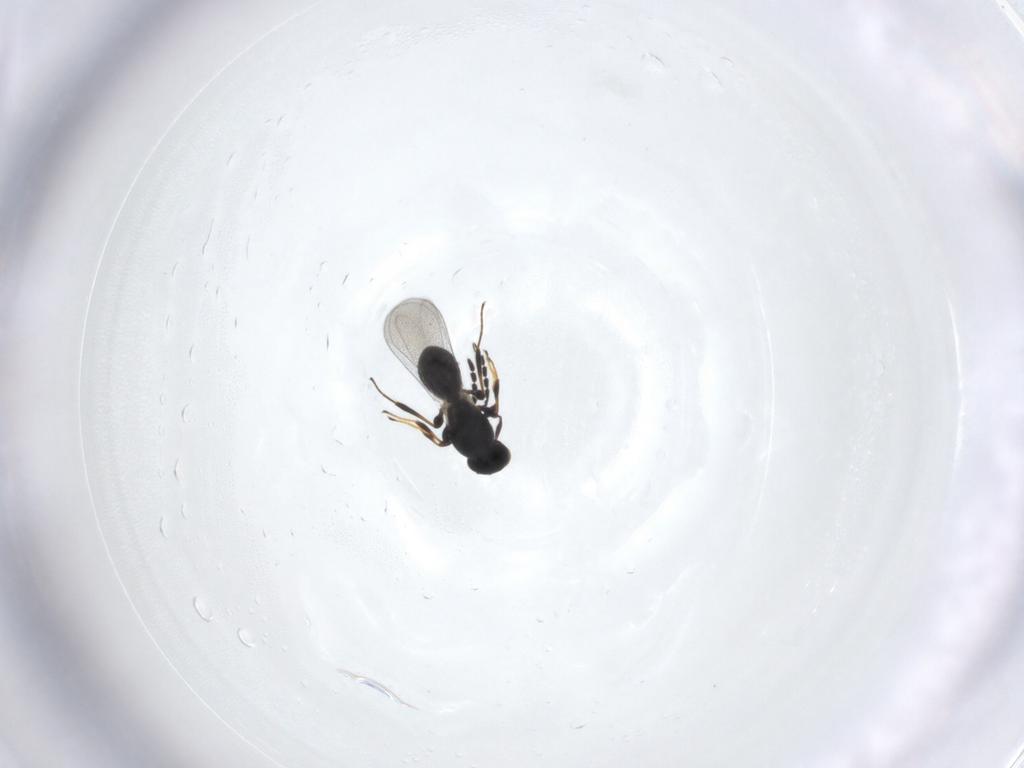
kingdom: Animalia
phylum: Arthropoda
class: Insecta
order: Hymenoptera
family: Platygastridae
